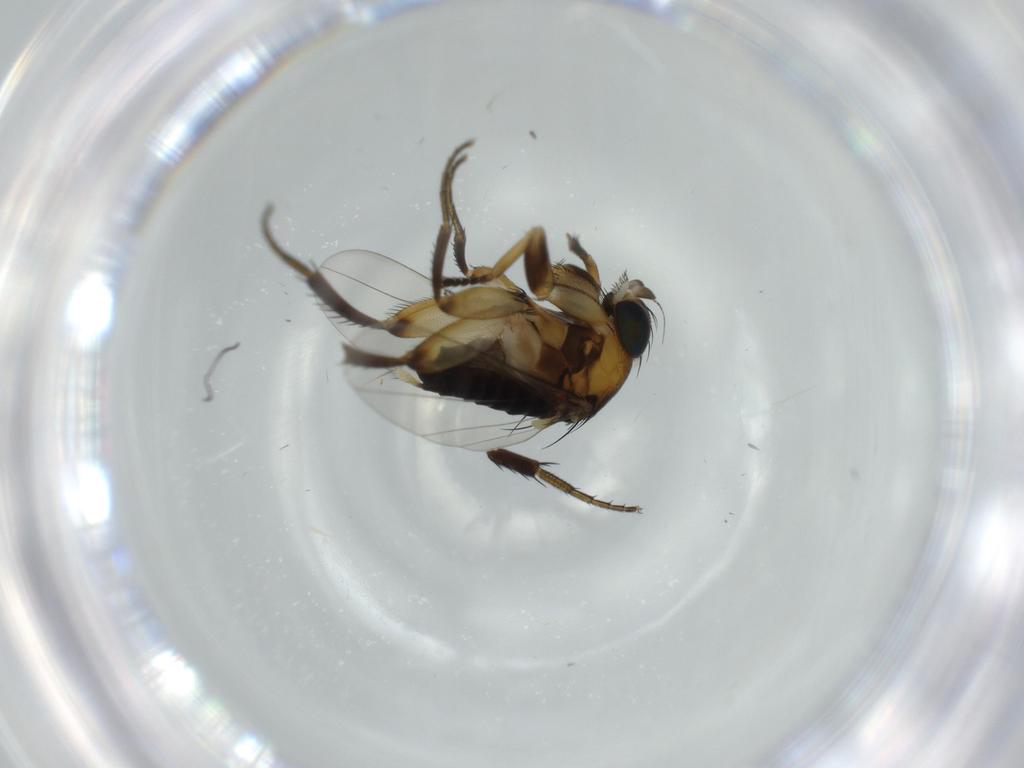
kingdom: Animalia
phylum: Arthropoda
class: Insecta
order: Diptera
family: Phoridae
